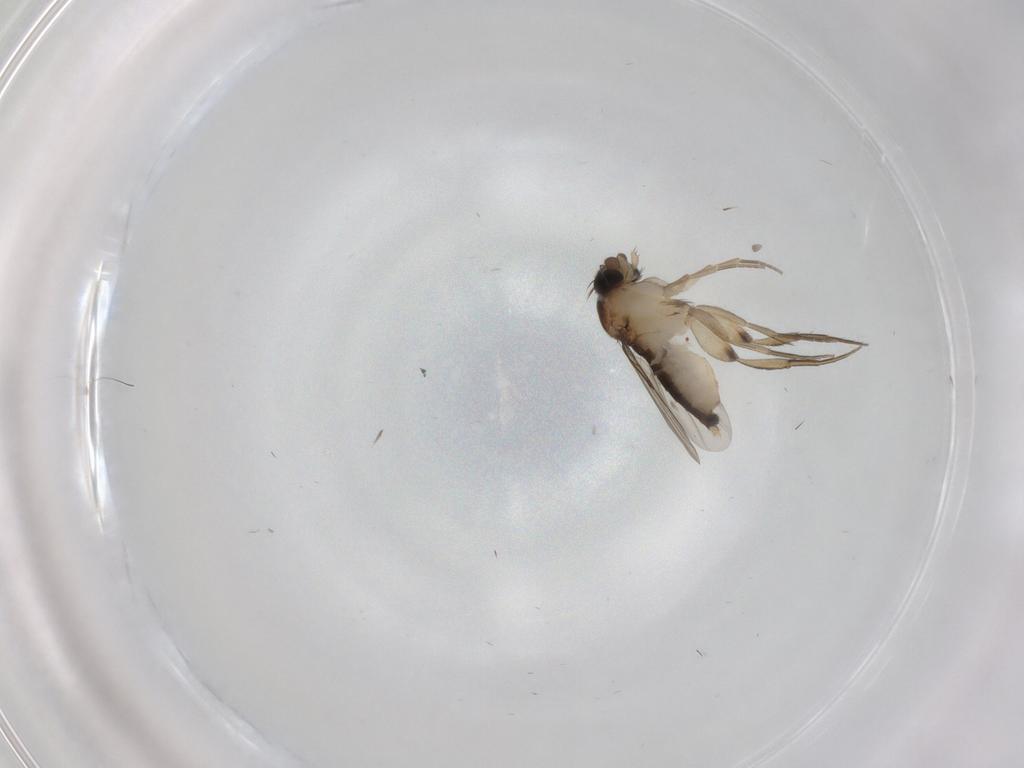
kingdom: Animalia
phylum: Arthropoda
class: Insecta
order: Diptera
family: Phoridae
